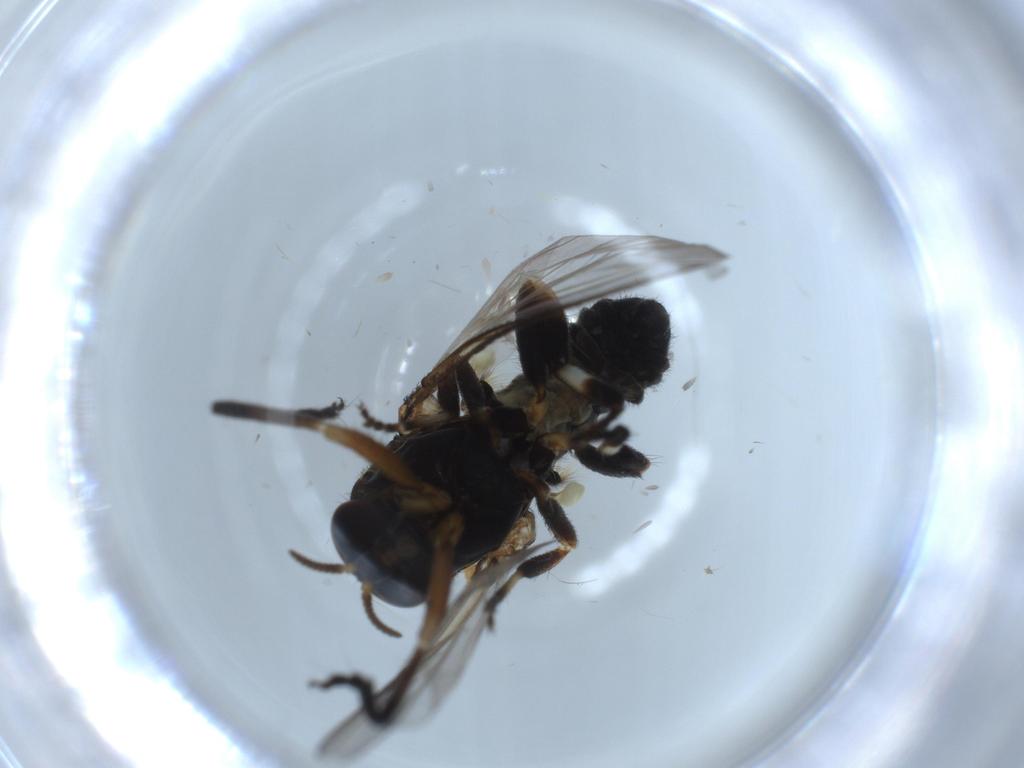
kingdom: Animalia
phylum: Arthropoda
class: Insecta
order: Diptera
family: Cecidomyiidae
